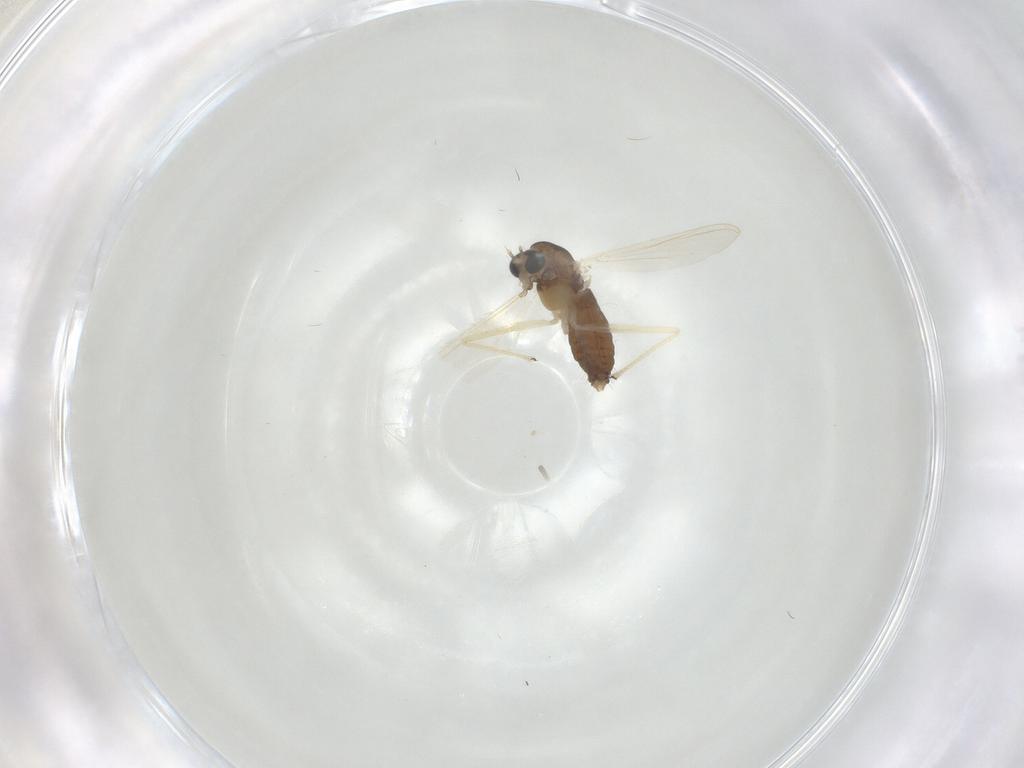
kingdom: Animalia
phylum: Arthropoda
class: Insecta
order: Diptera
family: Chironomidae
